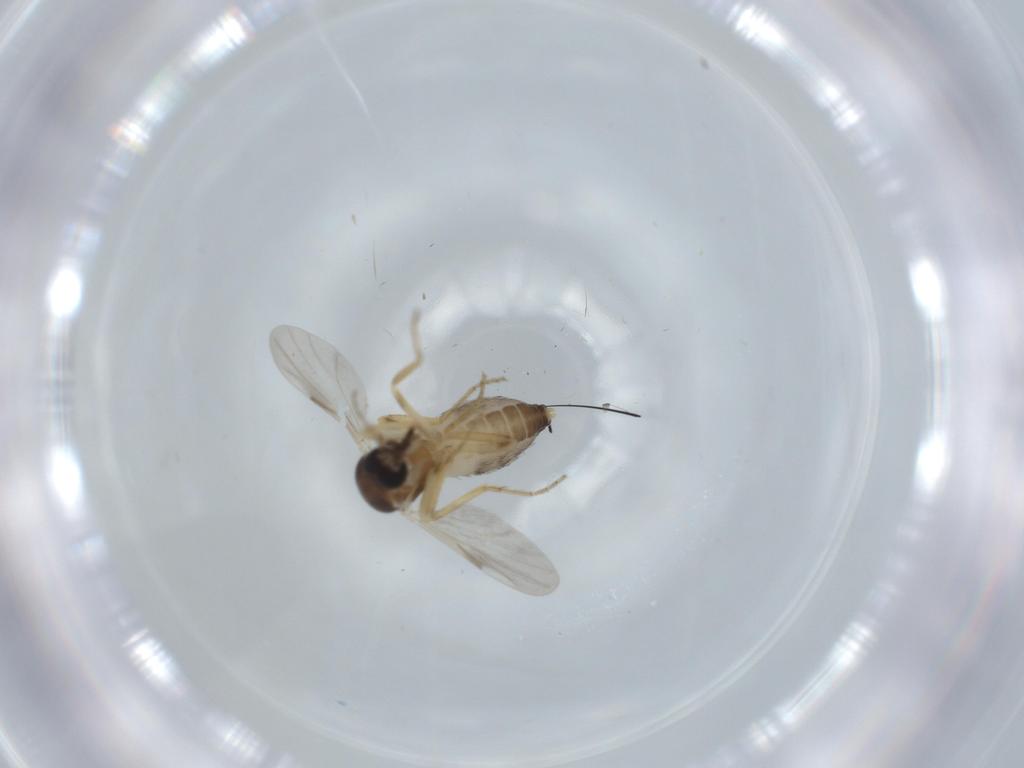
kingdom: Animalia
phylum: Arthropoda
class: Insecta
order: Diptera
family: Ceratopogonidae
